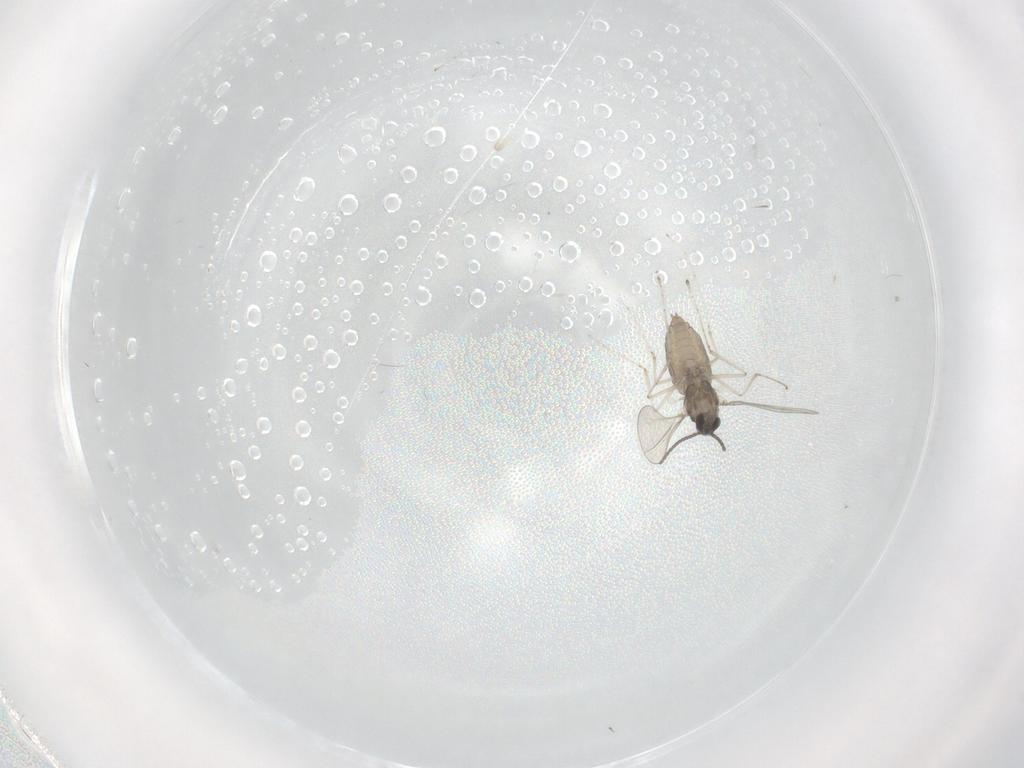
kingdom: Animalia
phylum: Arthropoda
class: Insecta
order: Diptera
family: Cecidomyiidae
